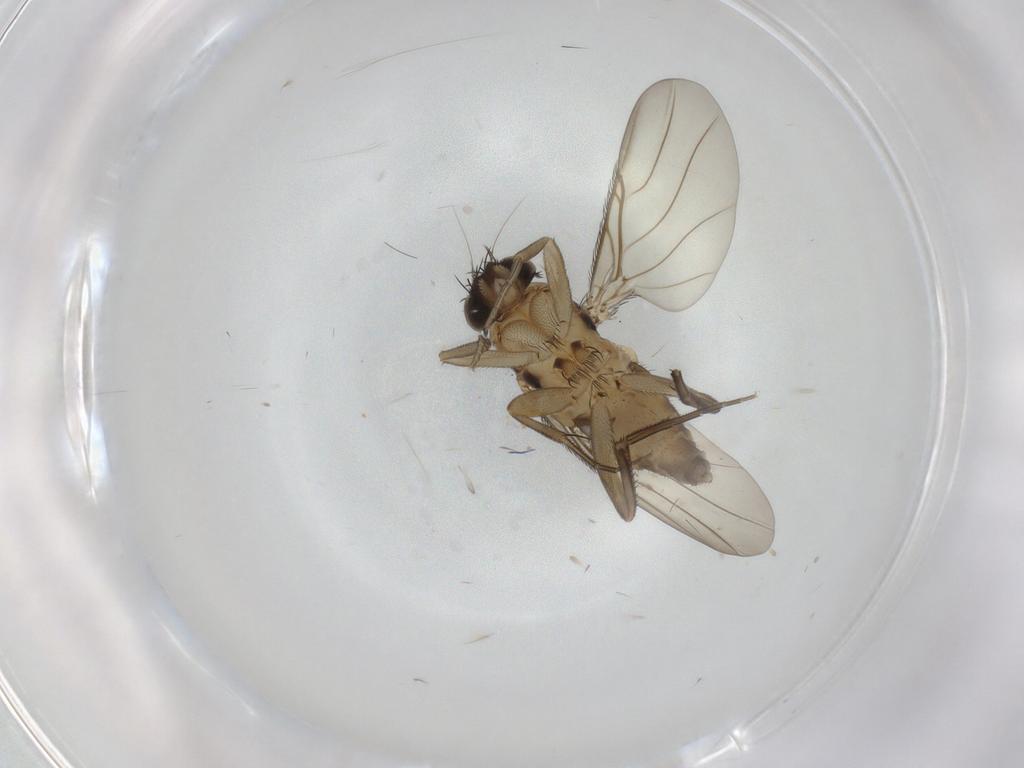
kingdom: Animalia
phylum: Arthropoda
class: Insecta
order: Diptera
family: Phoridae
